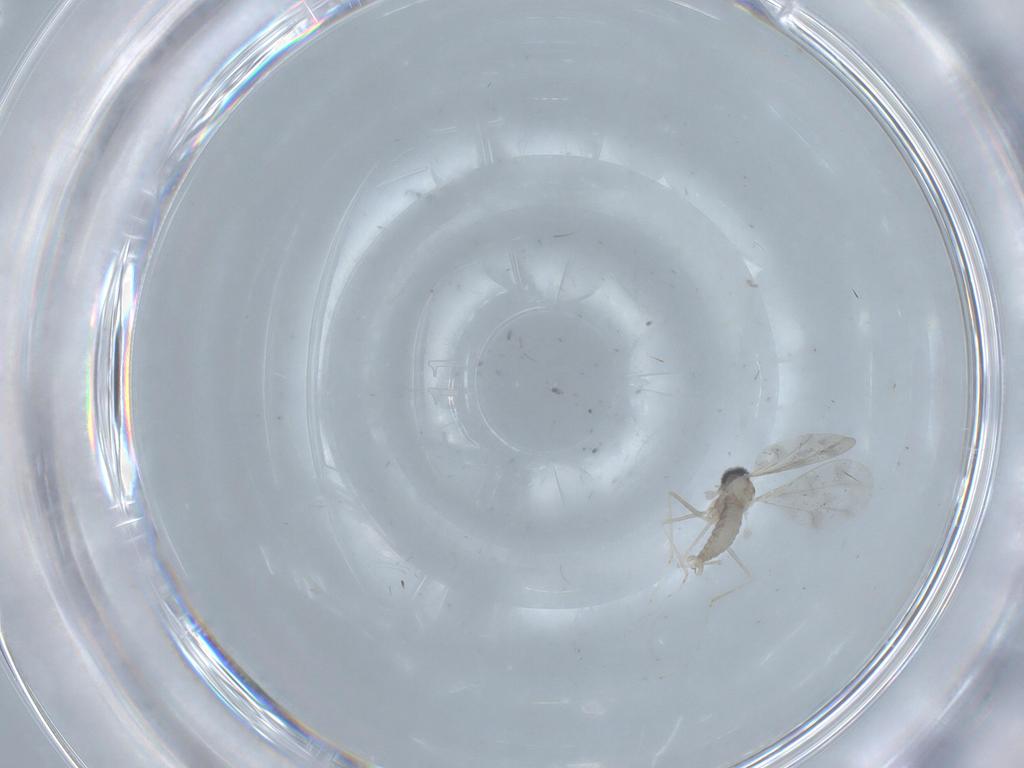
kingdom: Animalia
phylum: Arthropoda
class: Insecta
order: Diptera
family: Cecidomyiidae
